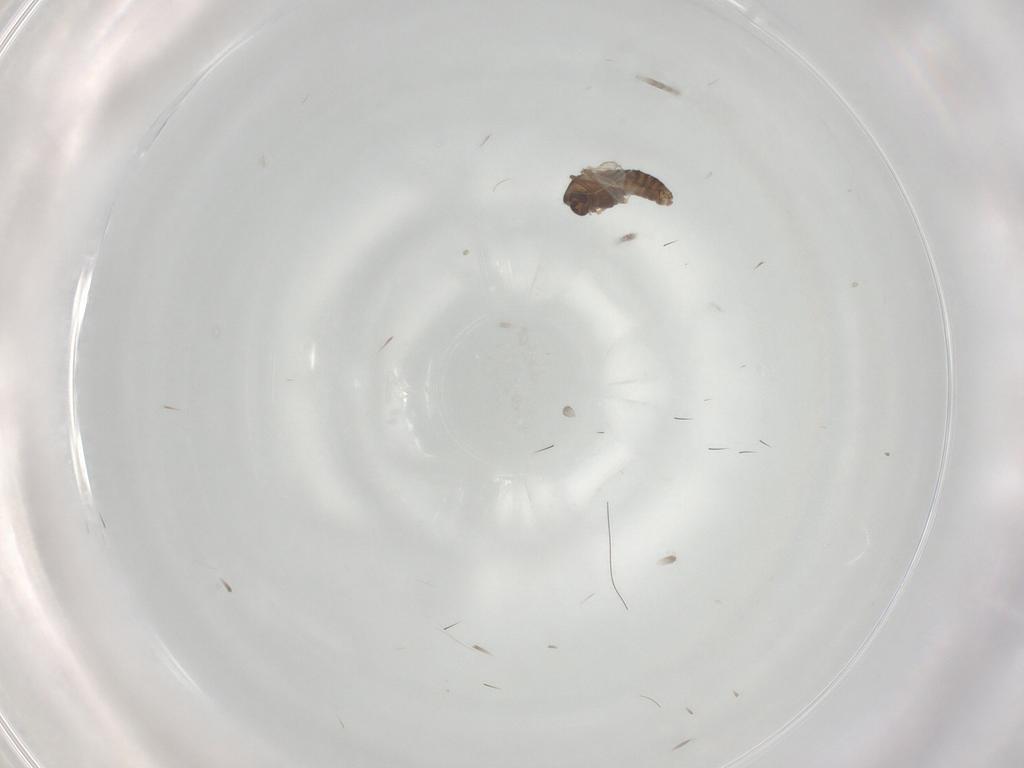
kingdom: Animalia
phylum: Arthropoda
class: Insecta
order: Diptera
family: Chironomidae
